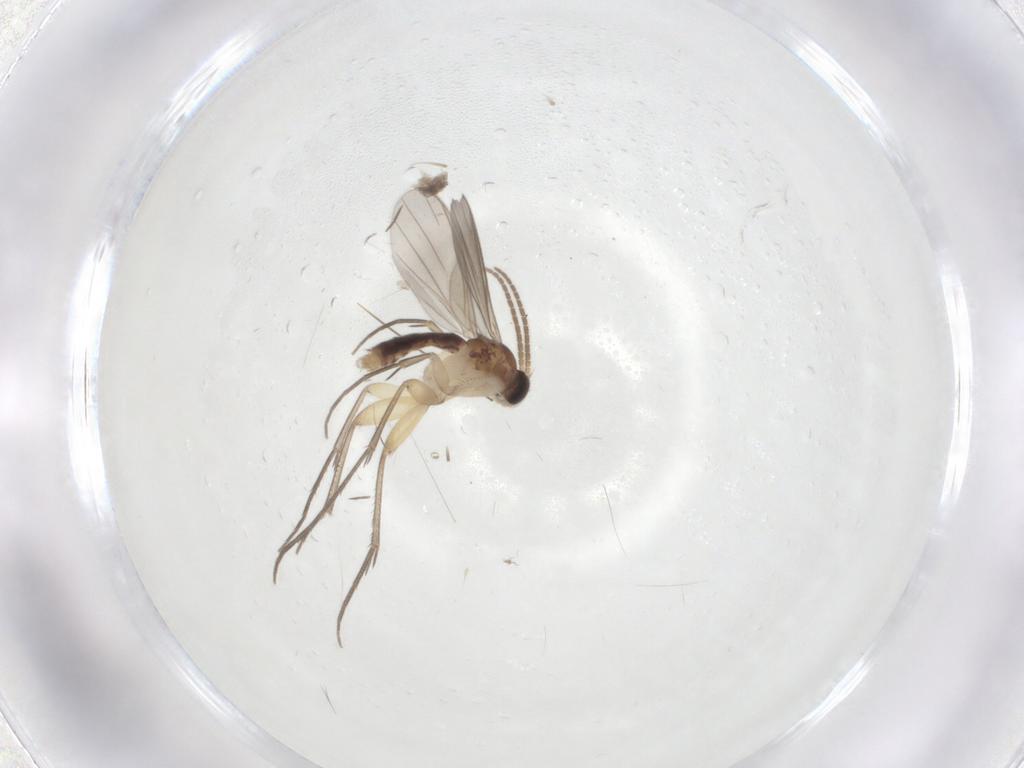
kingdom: Animalia
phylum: Arthropoda
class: Insecta
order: Diptera
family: Mycetophilidae
